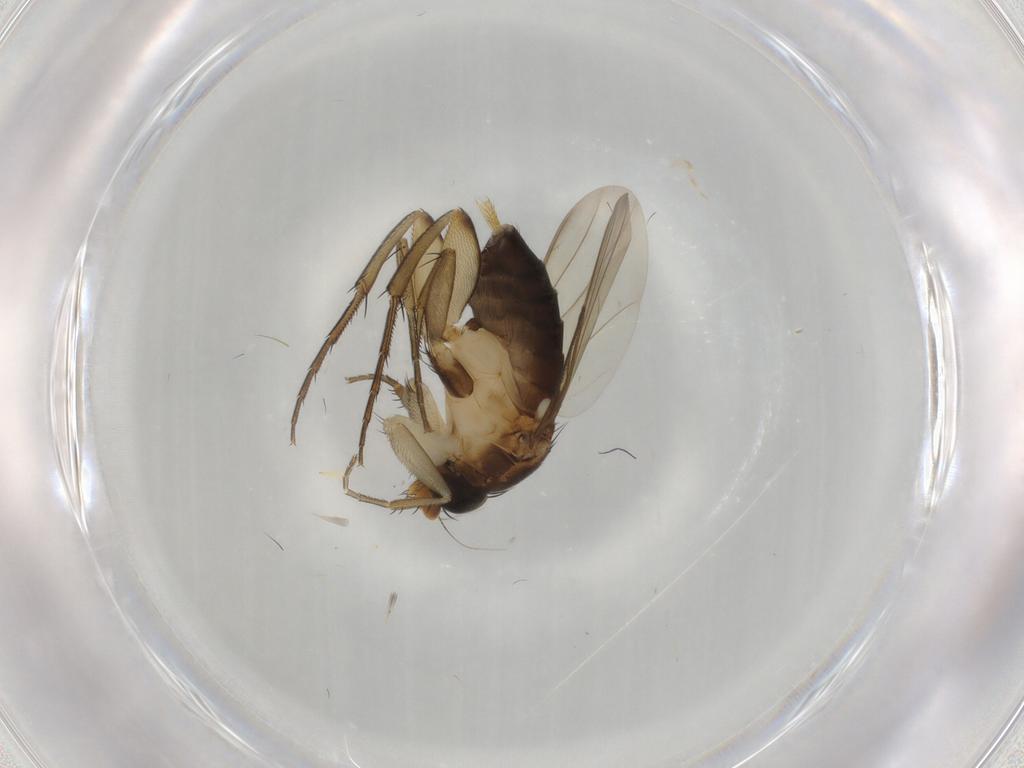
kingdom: Animalia
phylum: Arthropoda
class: Insecta
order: Diptera
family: Phoridae
